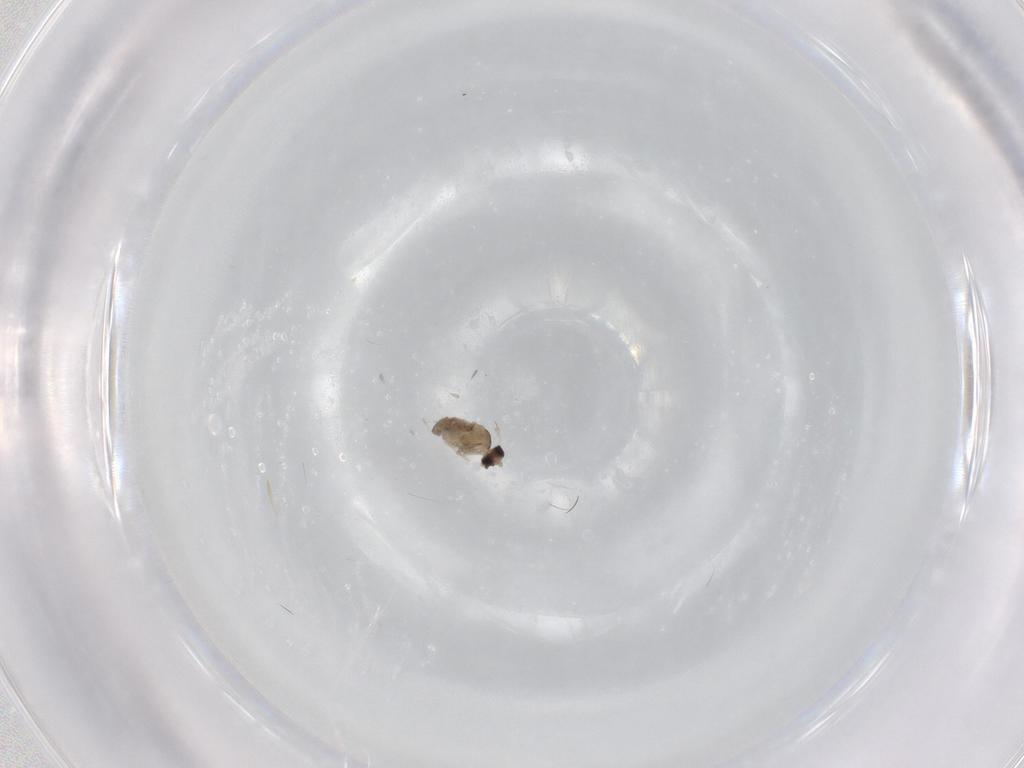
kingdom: Animalia
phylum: Arthropoda
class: Insecta
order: Diptera
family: Cecidomyiidae
